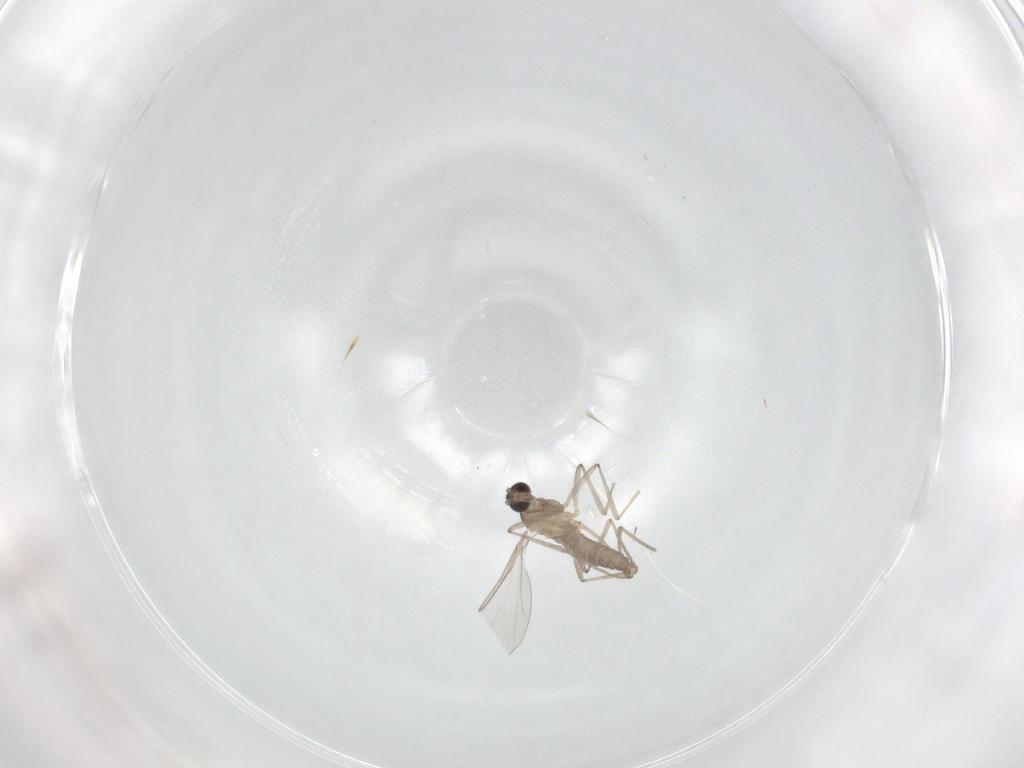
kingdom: Animalia
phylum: Arthropoda
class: Insecta
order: Diptera
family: Cecidomyiidae
